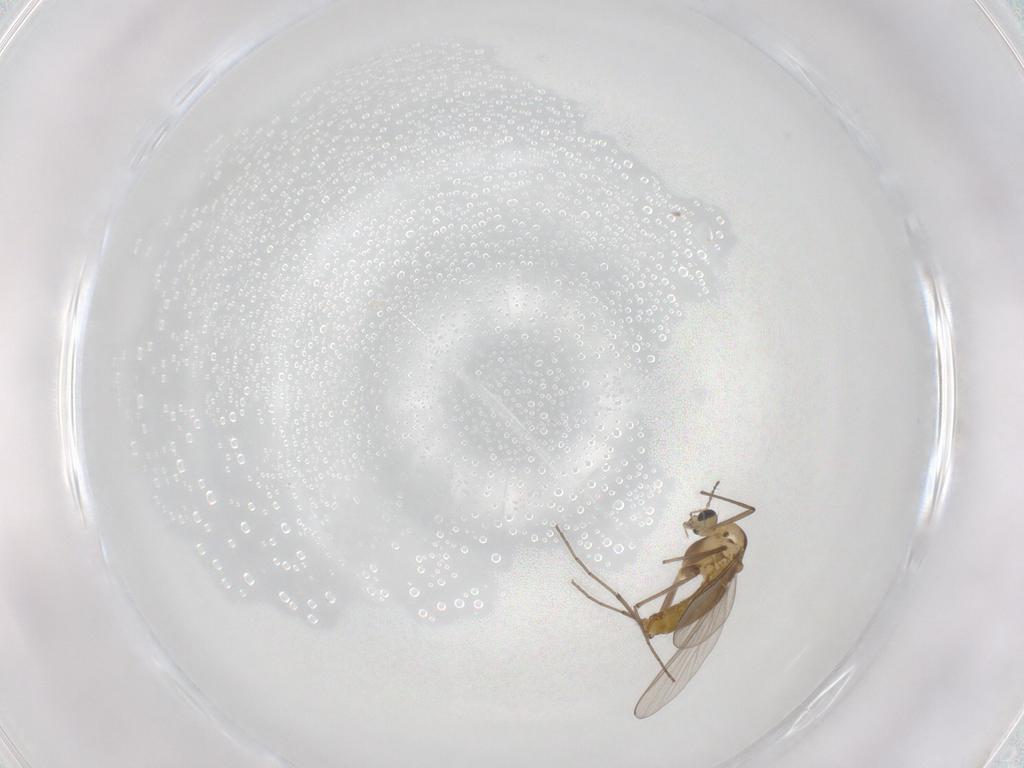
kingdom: Animalia
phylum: Arthropoda
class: Insecta
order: Diptera
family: Chironomidae
